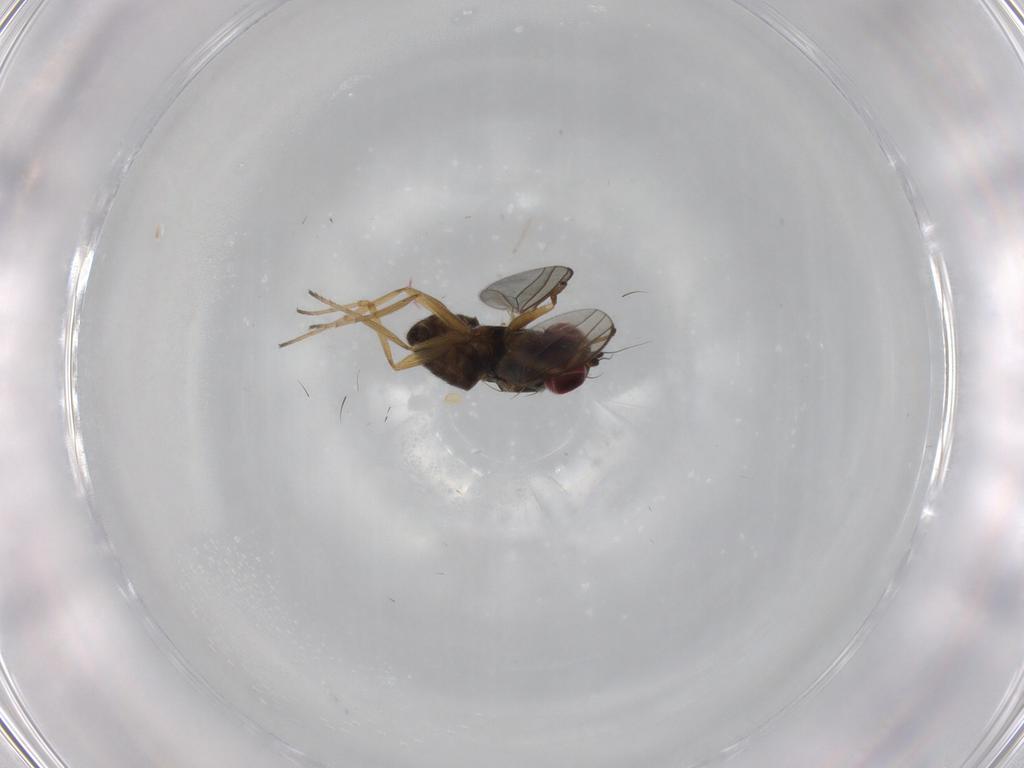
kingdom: Animalia
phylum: Arthropoda
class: Insecta
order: Diptera
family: Dolichopodidae
